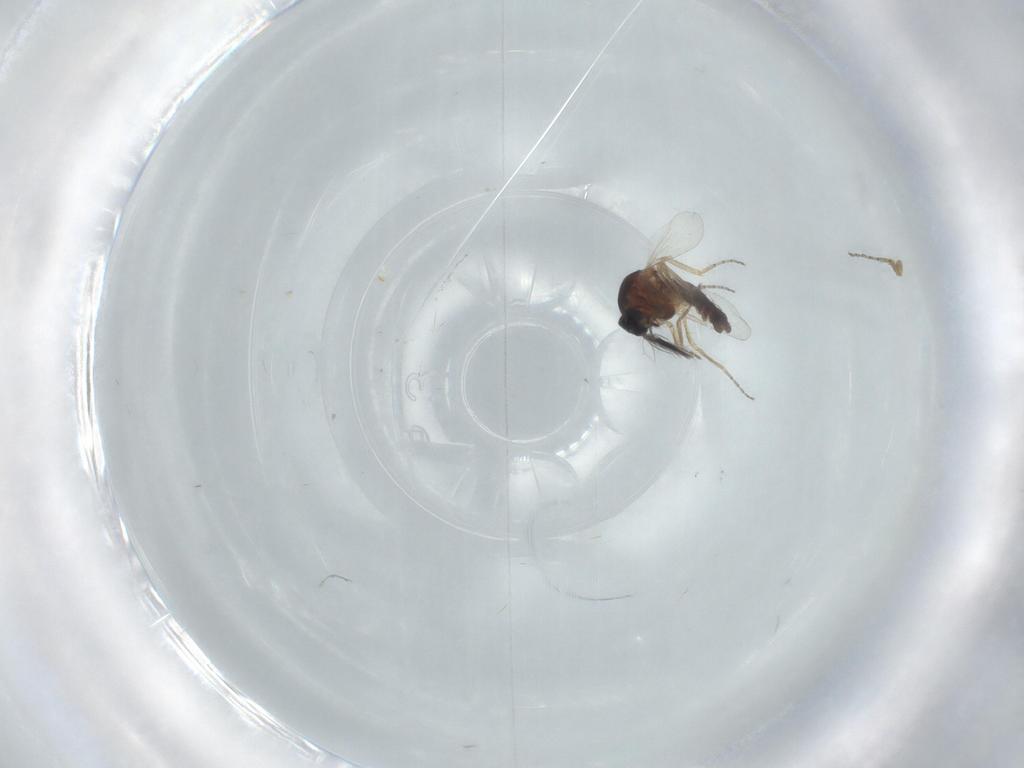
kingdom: Animalia
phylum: Arthropoda
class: Insecta
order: Diptera
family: Ceratopogonidae
